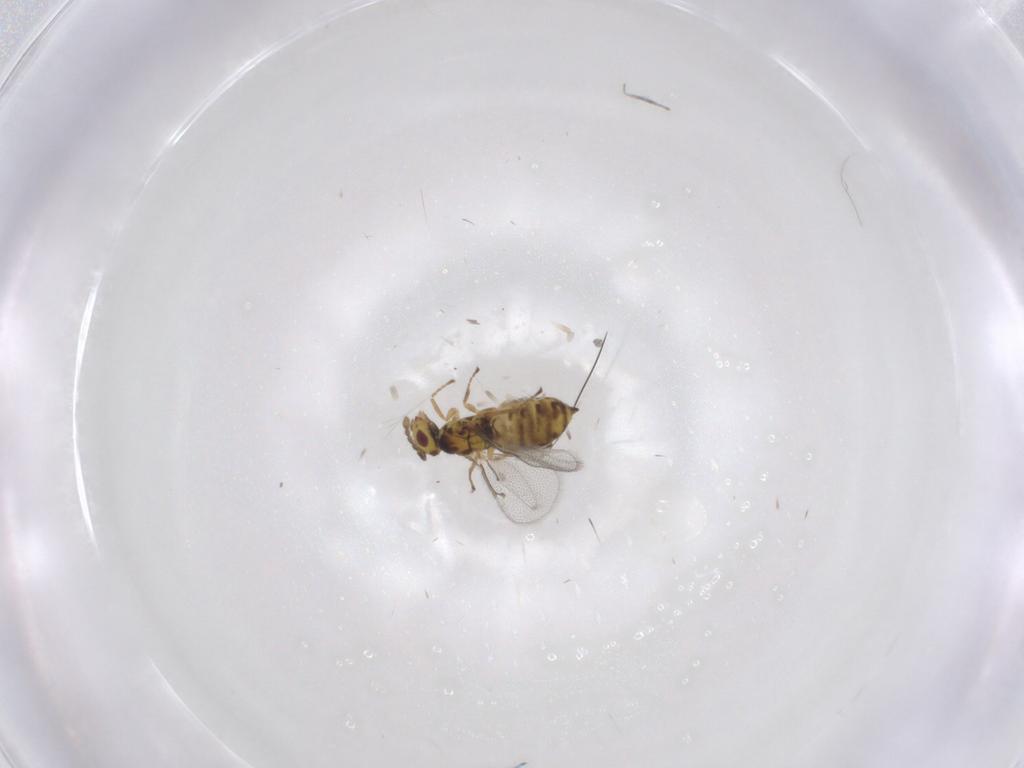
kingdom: Animalia
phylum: Arthropoda
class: Insecta
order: Hymenoptera
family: Eulophidae
